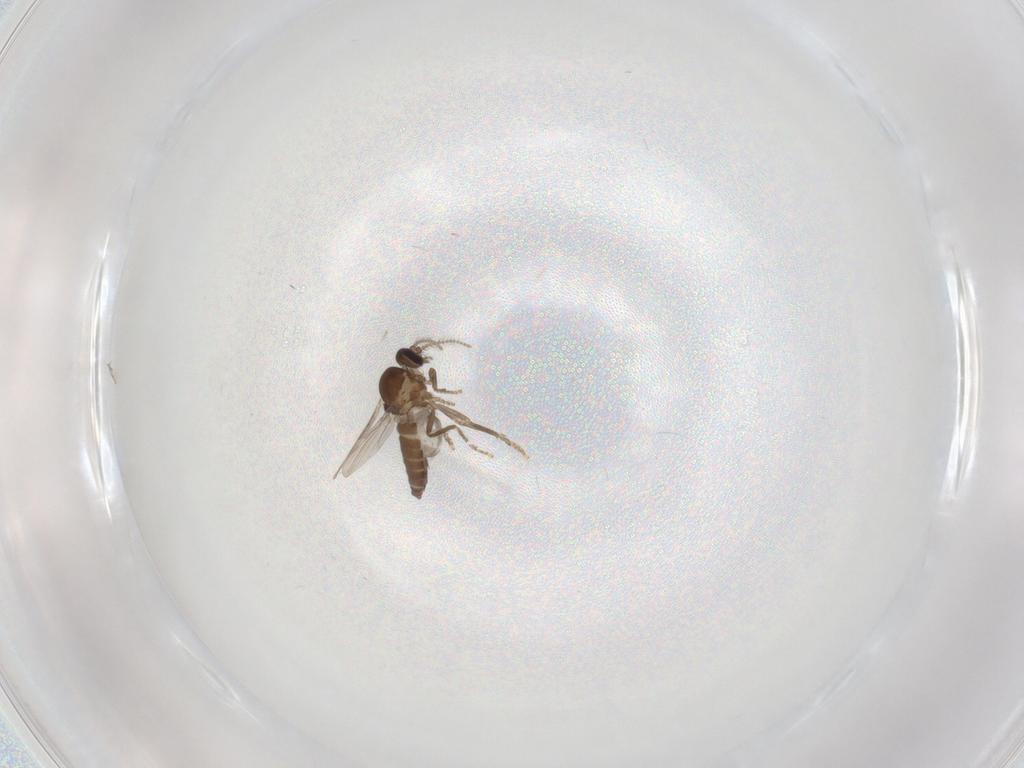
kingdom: Animalia
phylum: Arthropoda
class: Insecta
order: Diptera
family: Ceratopogonidae
